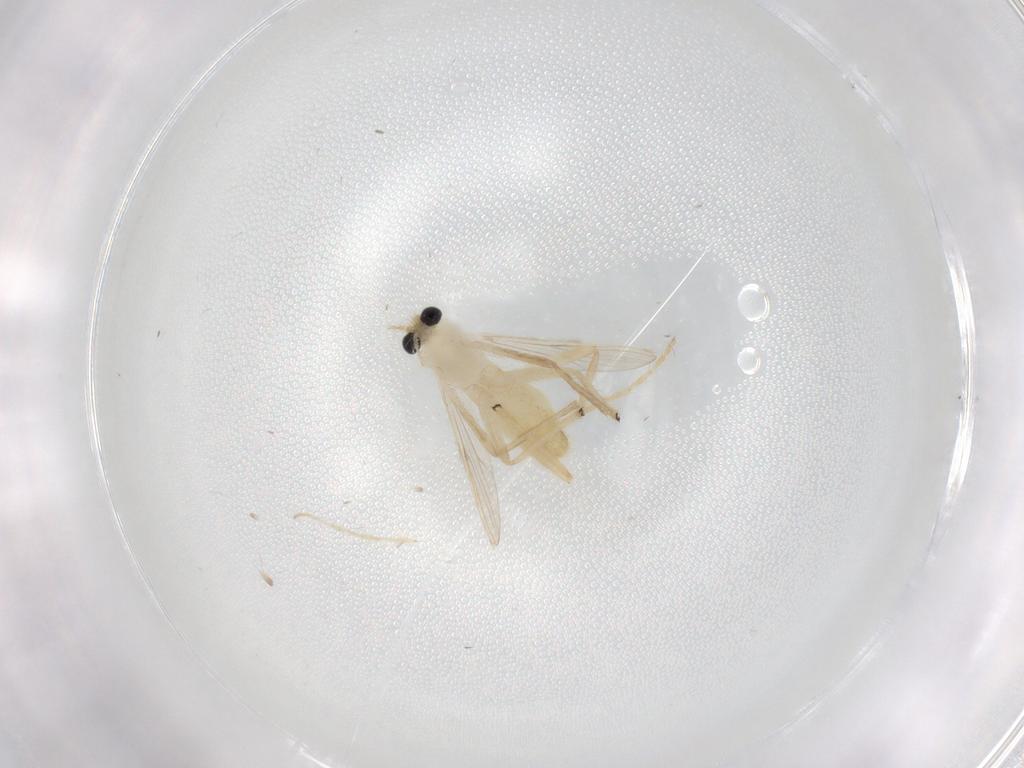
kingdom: Animalia
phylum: Arthropoda
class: Insecta
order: Diptera
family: Chironomidae
